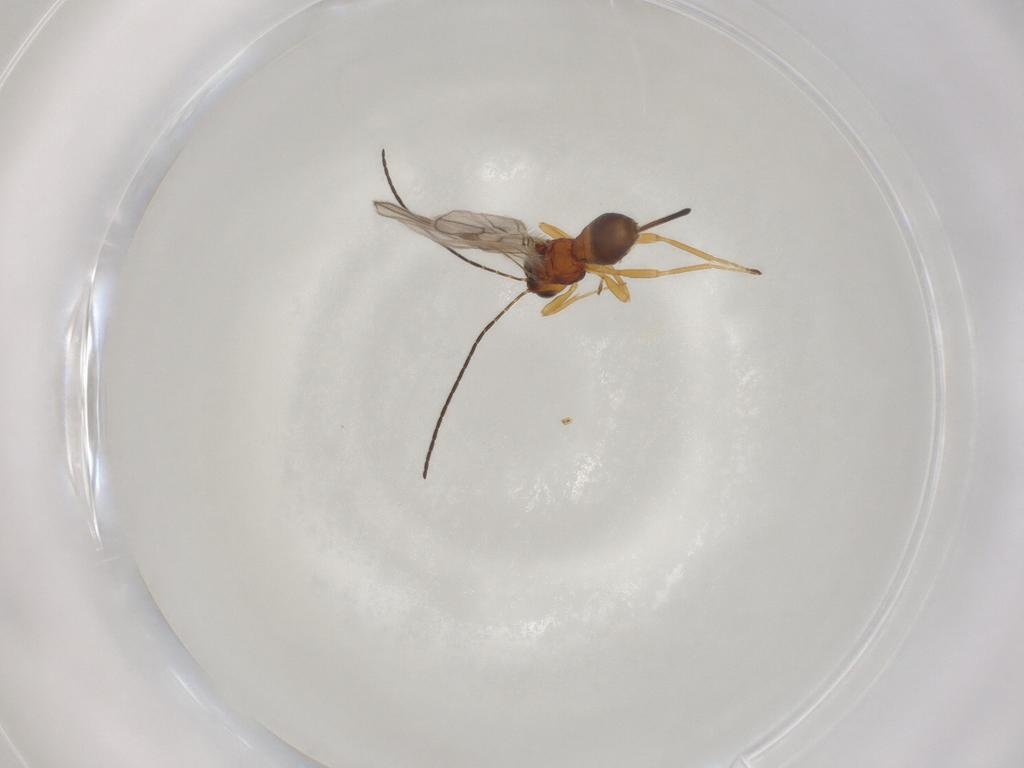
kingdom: Animalia
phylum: Arthropoda
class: Insecta
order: Hymenoptera
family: Braconidae
